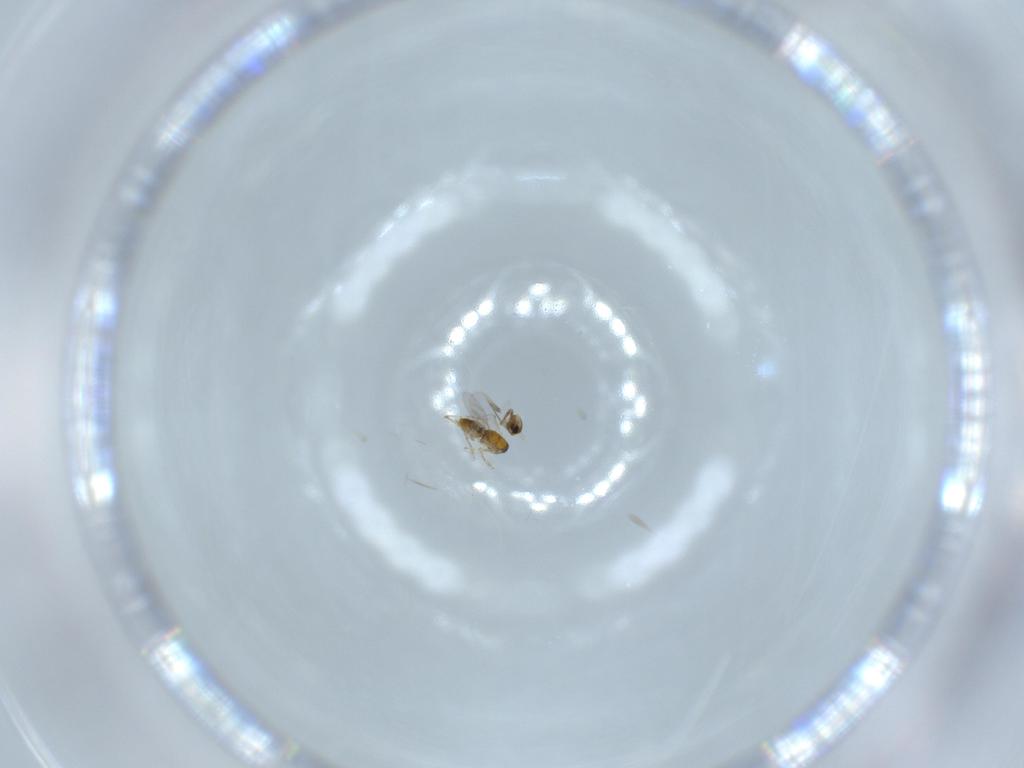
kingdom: Animalia
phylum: Arthropoda
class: Insecta
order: Hymenoptera
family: Encyrtidae
